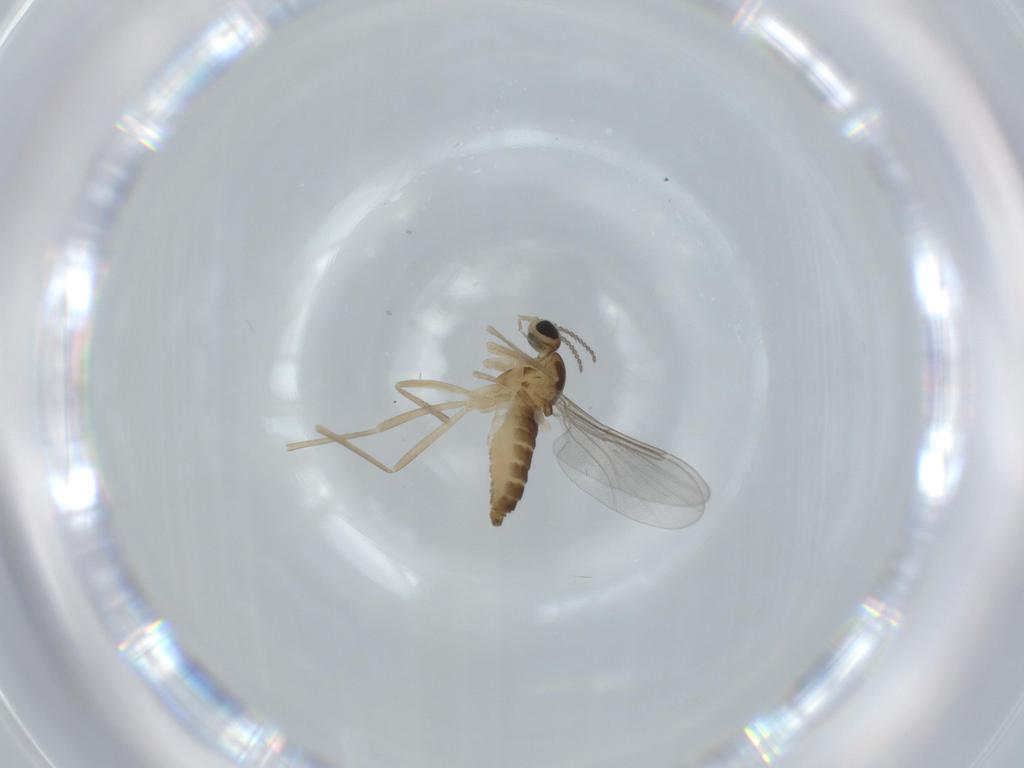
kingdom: Animalia
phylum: Arthropoda
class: Insecta
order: Diptera
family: Cecidomyiidae
